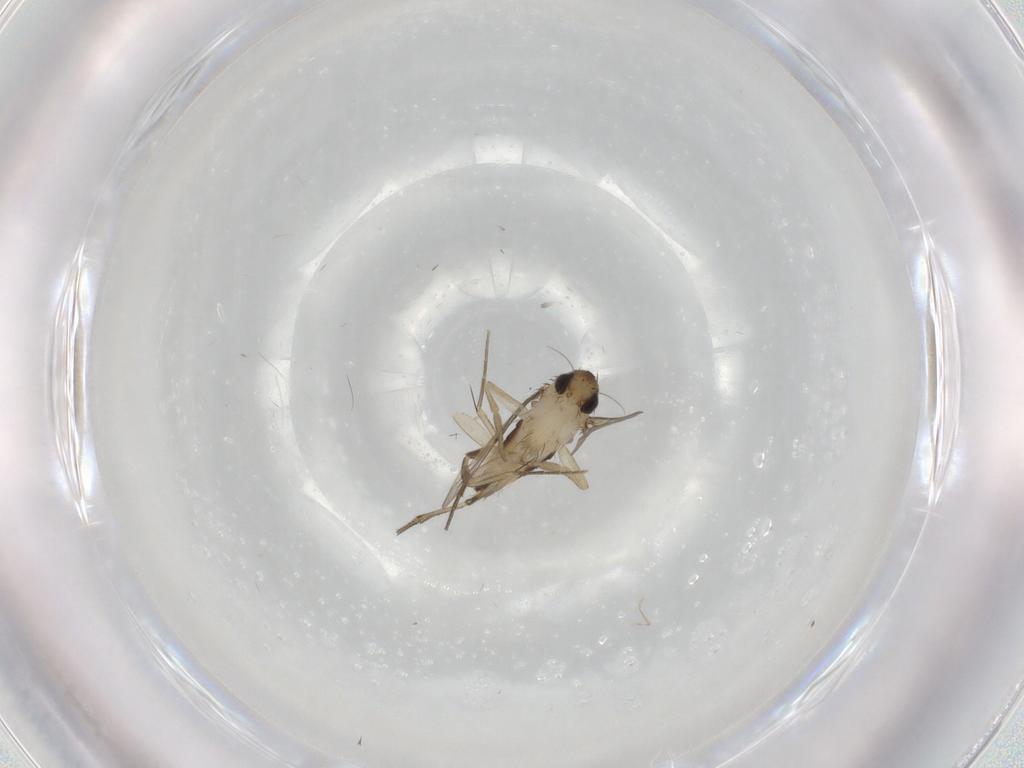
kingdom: Animalia
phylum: Arthropoda
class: Insecta
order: Diptera
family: Phoridae
